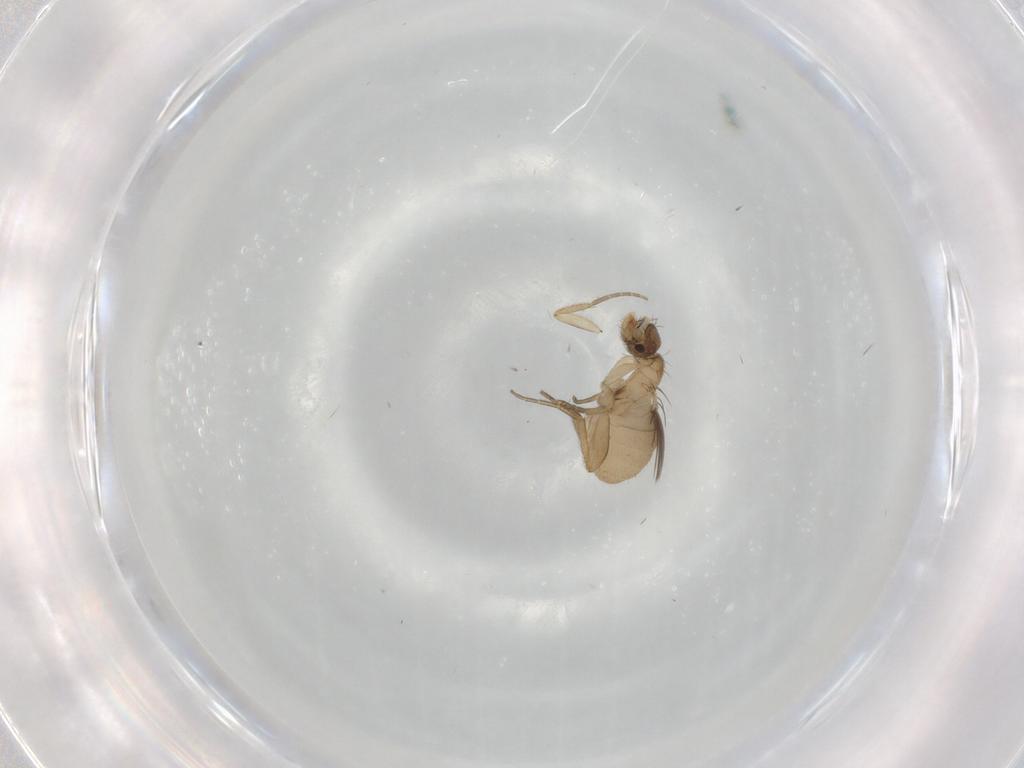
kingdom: Animalia
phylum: Arthropoda
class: Insecta
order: Diptera
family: Phoridae
